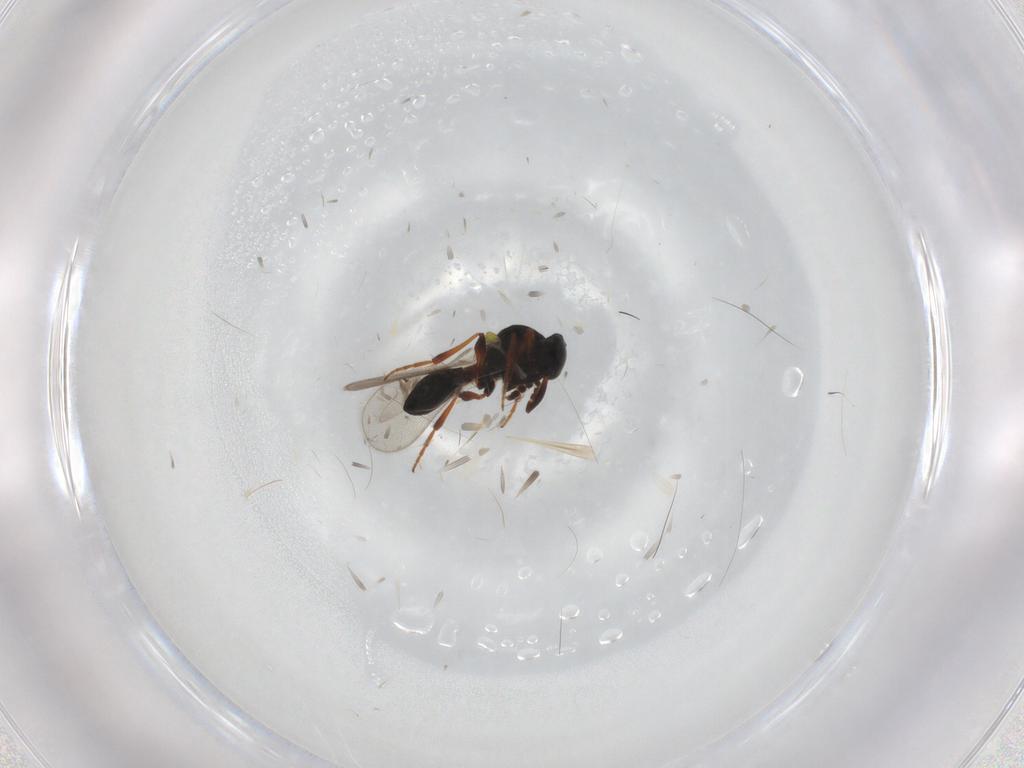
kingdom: Animalia
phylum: Arthropoda
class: Insecta
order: Hymenoptera
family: Platygastridae
